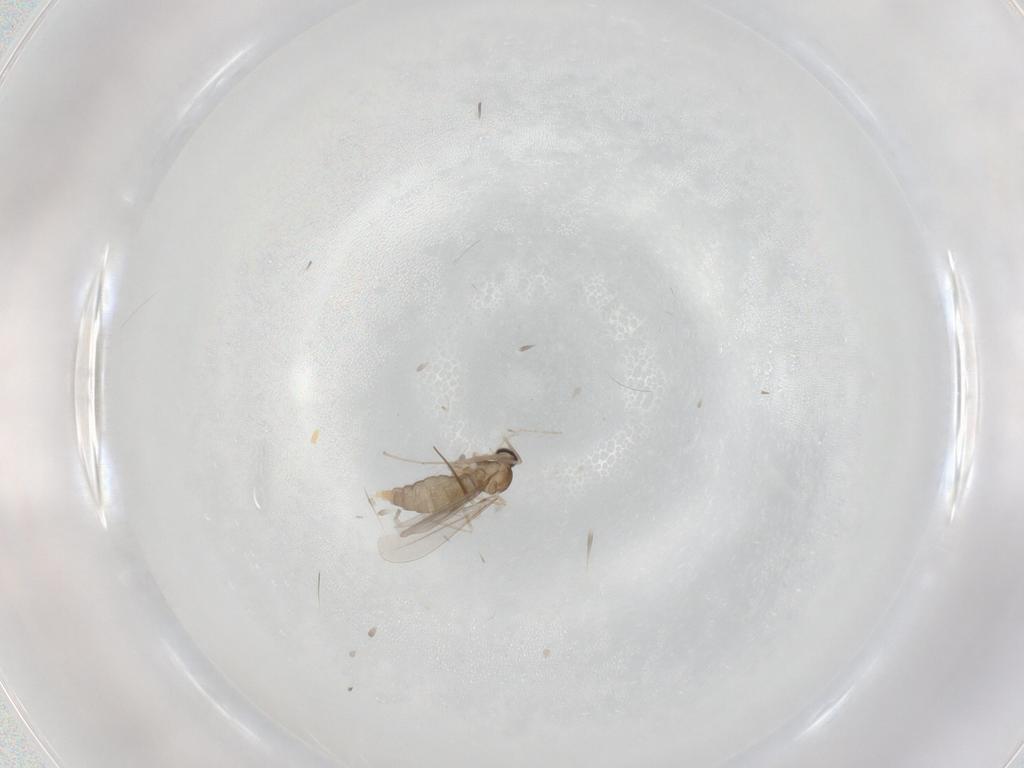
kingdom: Animalia
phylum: Arthropoda
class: Insecta
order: Diptera
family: Cecidomyiidae
